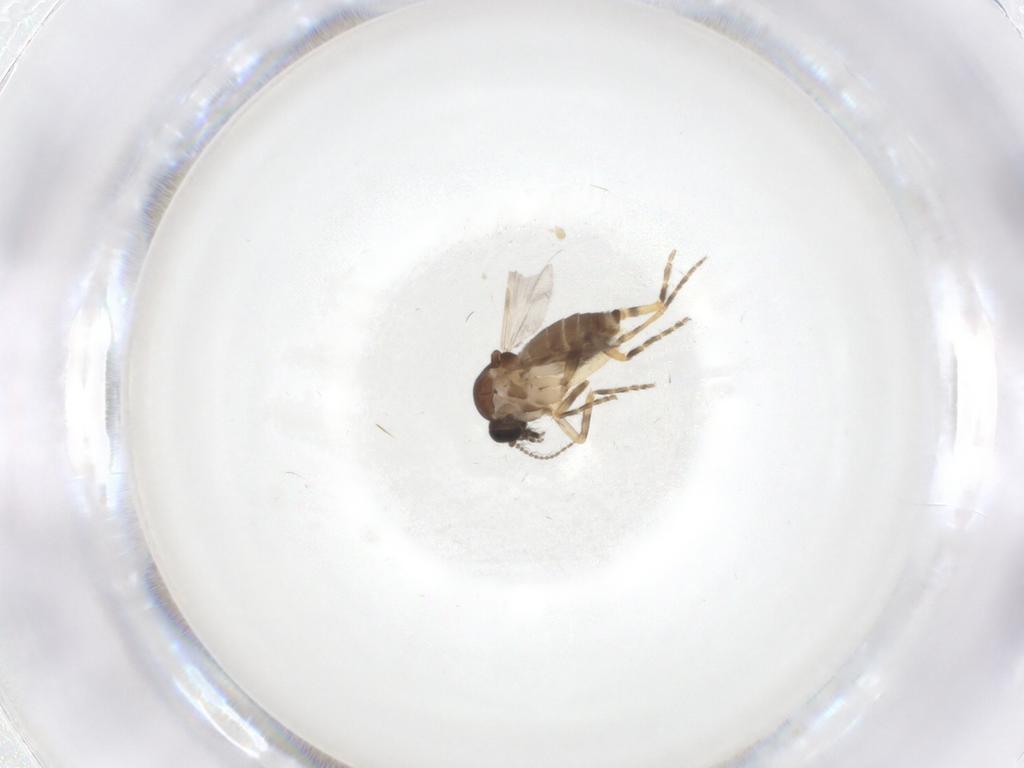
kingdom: Animalia
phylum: Arthropoda
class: Insecta
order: Diptera
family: Ceratopogonidae
